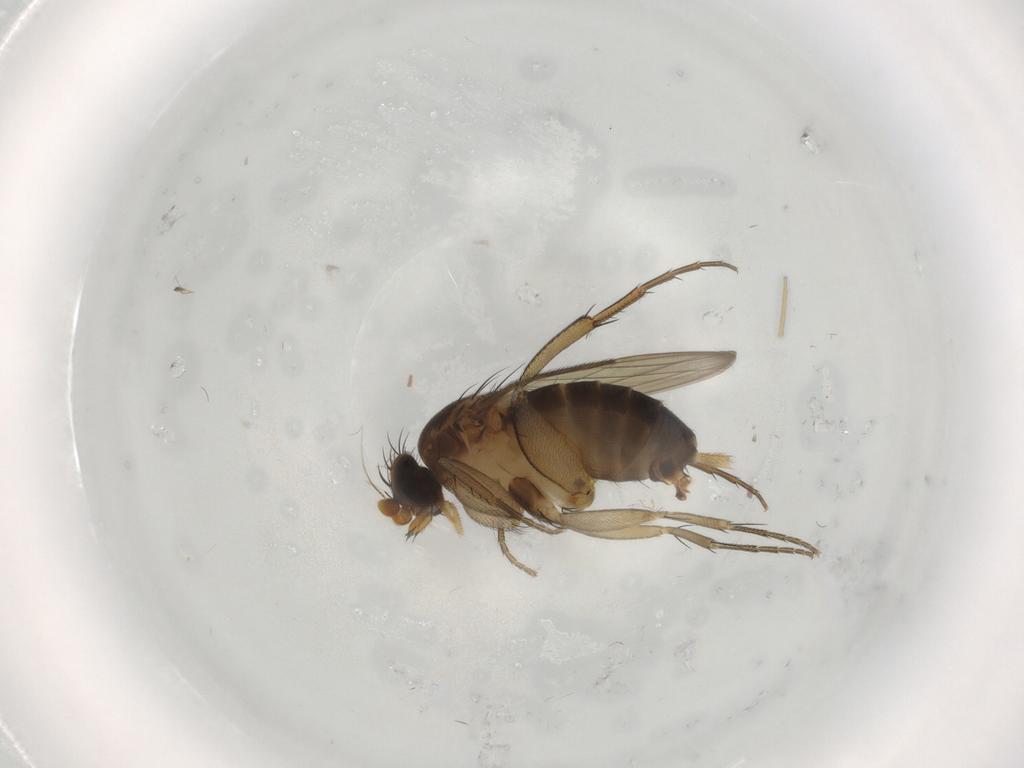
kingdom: Animalia
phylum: Arthropoda
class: Insecta
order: Diptera
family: Phoridae
